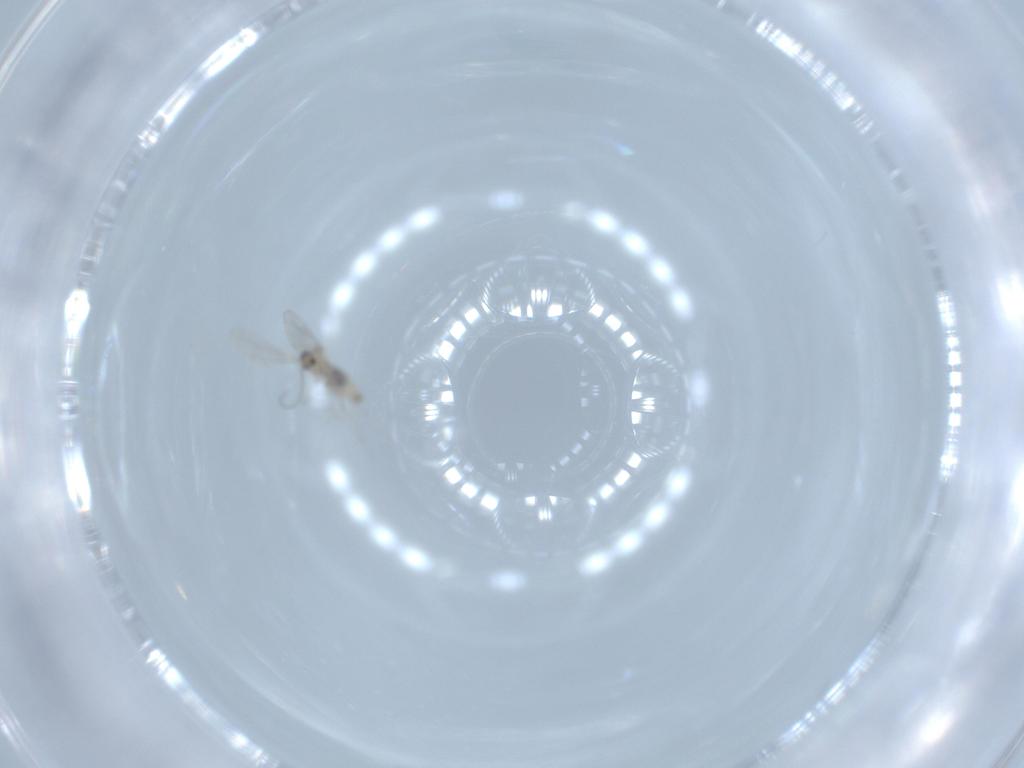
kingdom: Animalia
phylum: Arthropoda
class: Insecta
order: Diptera
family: Cecidomyiidae
